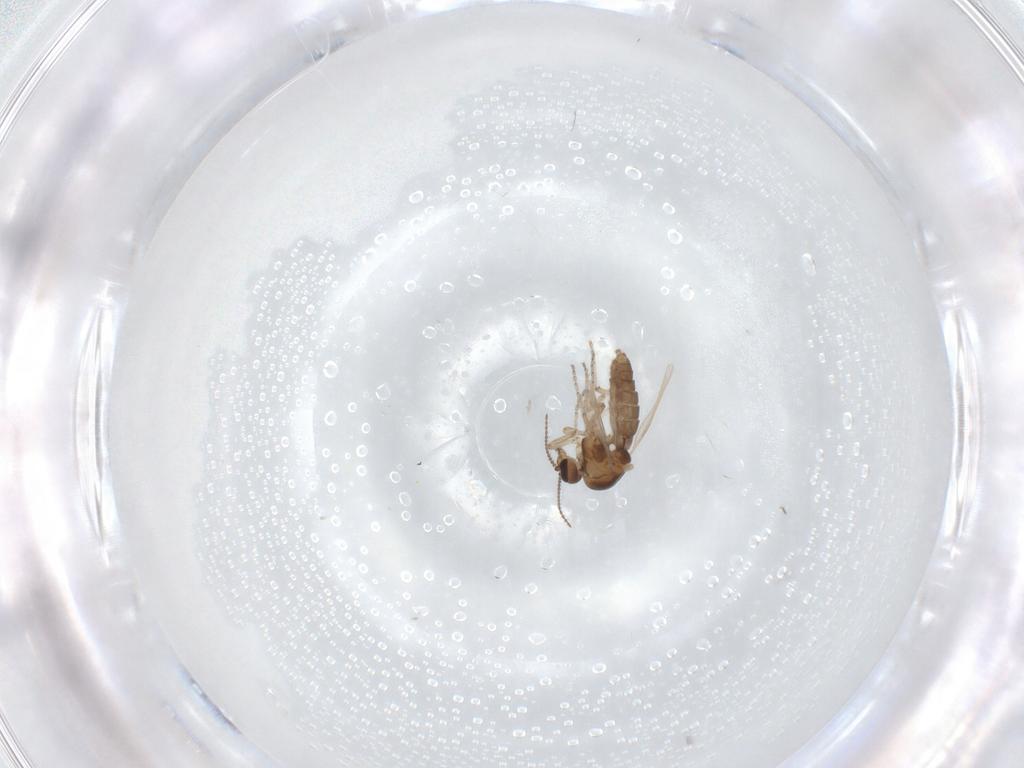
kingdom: Animalia
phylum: Arthropoda
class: Insecta
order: Diptera
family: Ceratopogonidae
